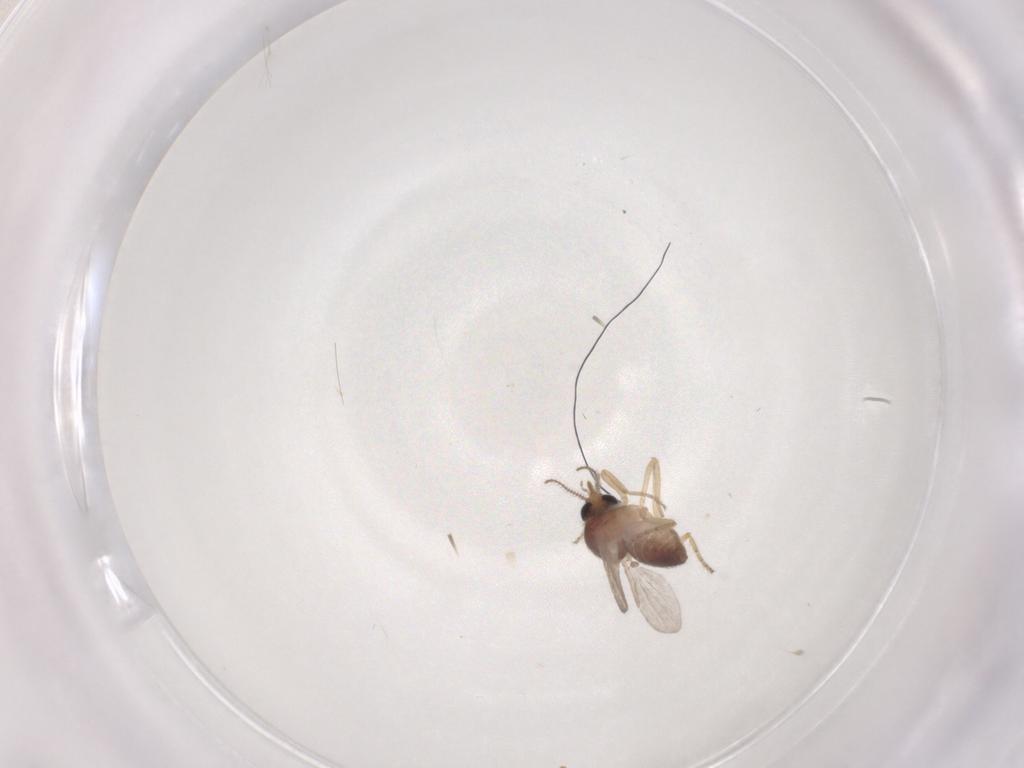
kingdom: Animalia
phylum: Arthropoda
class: Insecta
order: Diptera
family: Ceratopogonidae
